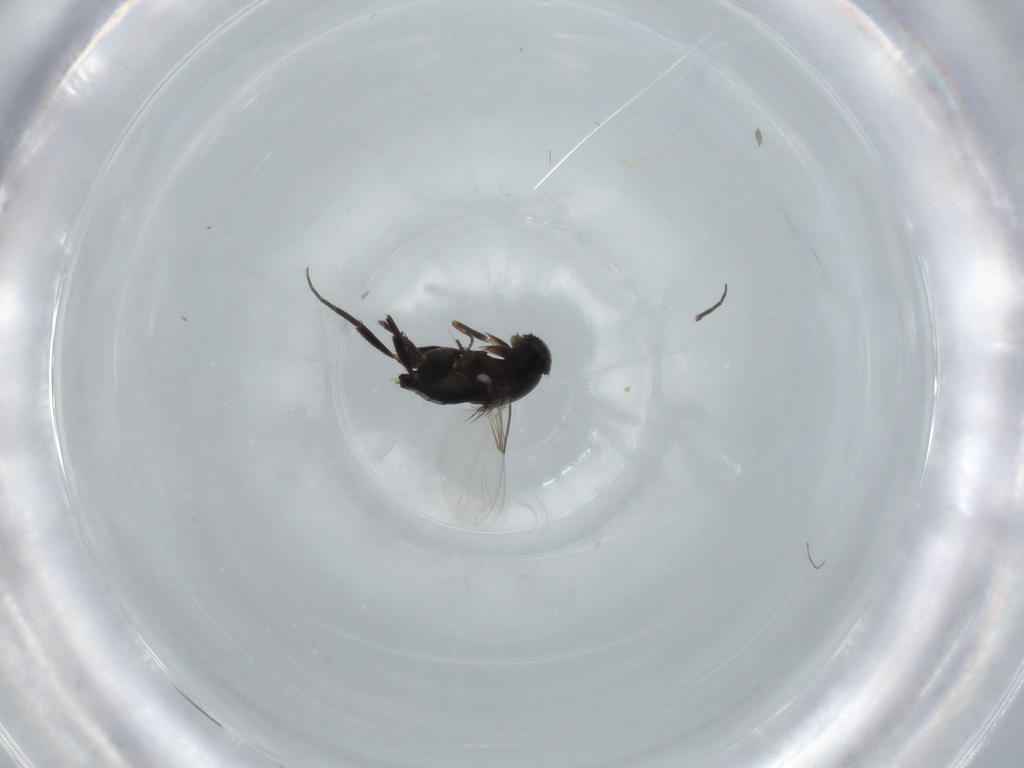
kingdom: Animalia
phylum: Arthropoda
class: Insecta
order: Diptera
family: Phoridae
